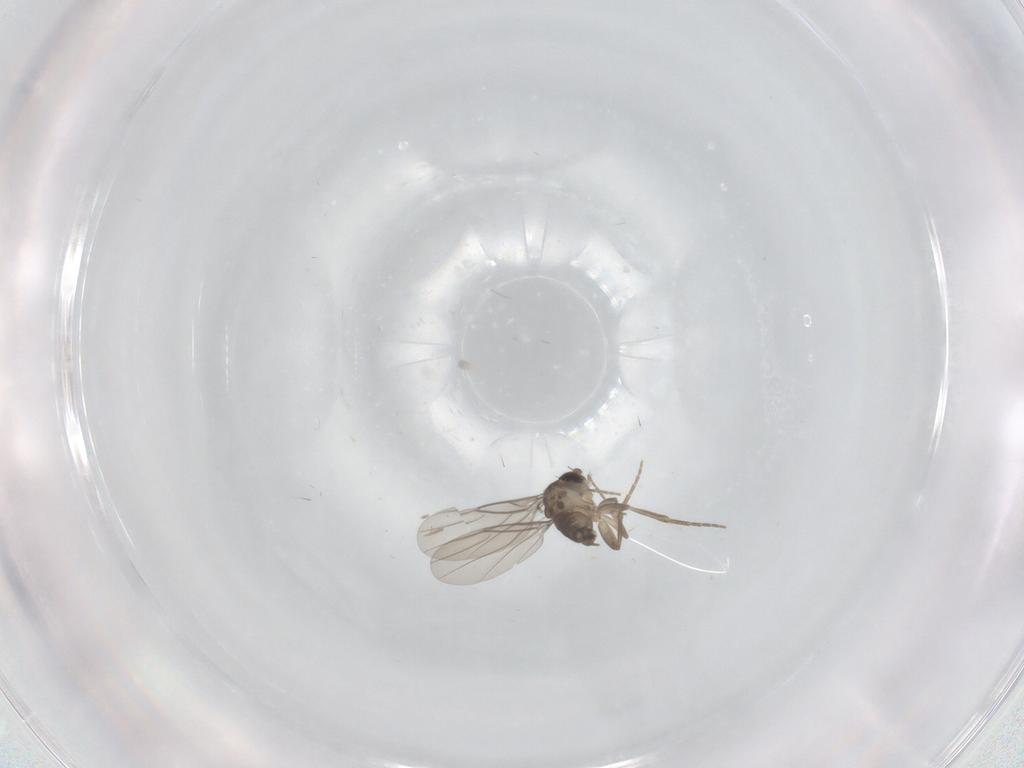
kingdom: Animalia
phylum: Arthropoda
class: Insecta
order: Diptera
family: Phoridae
